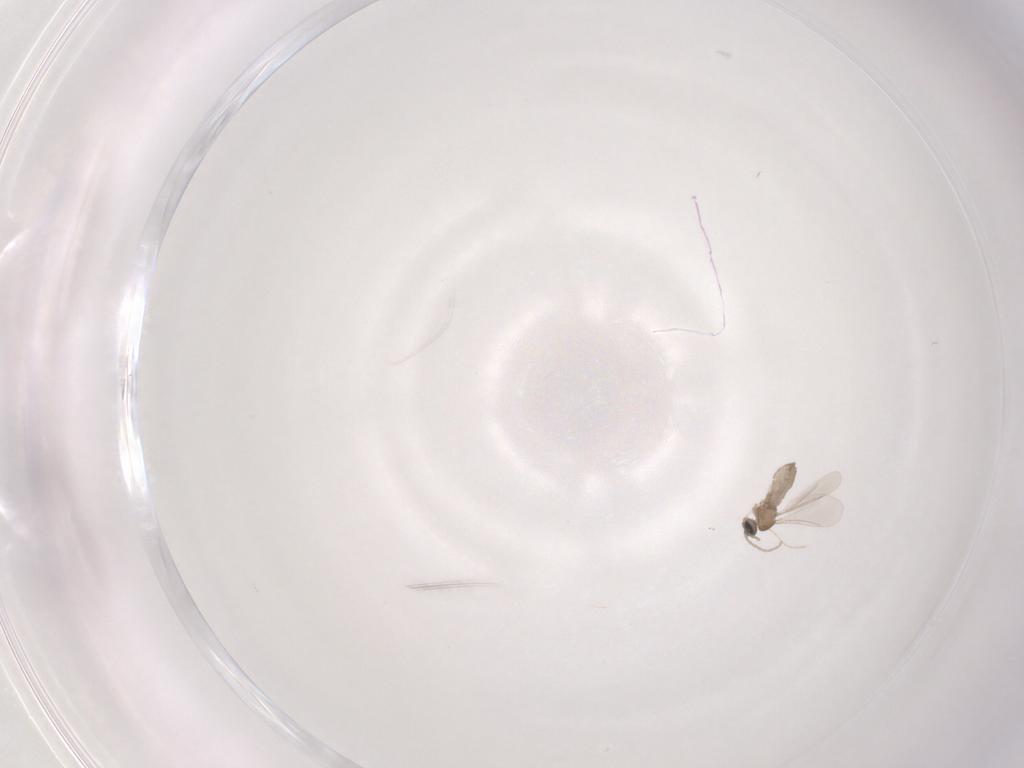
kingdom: Animalia
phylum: Arthropoda
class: Insecta
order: Diptera
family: Cecidomyiidae
